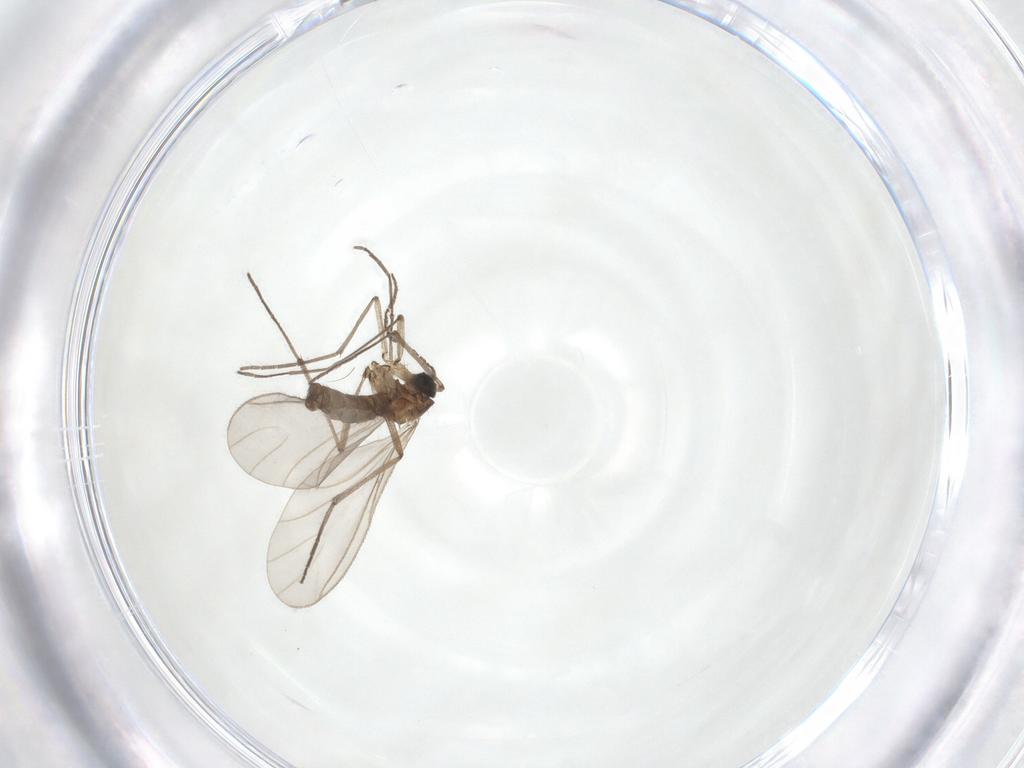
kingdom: Animalia
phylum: Arthropoda
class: Insecta
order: Diptera
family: Sciaridae
